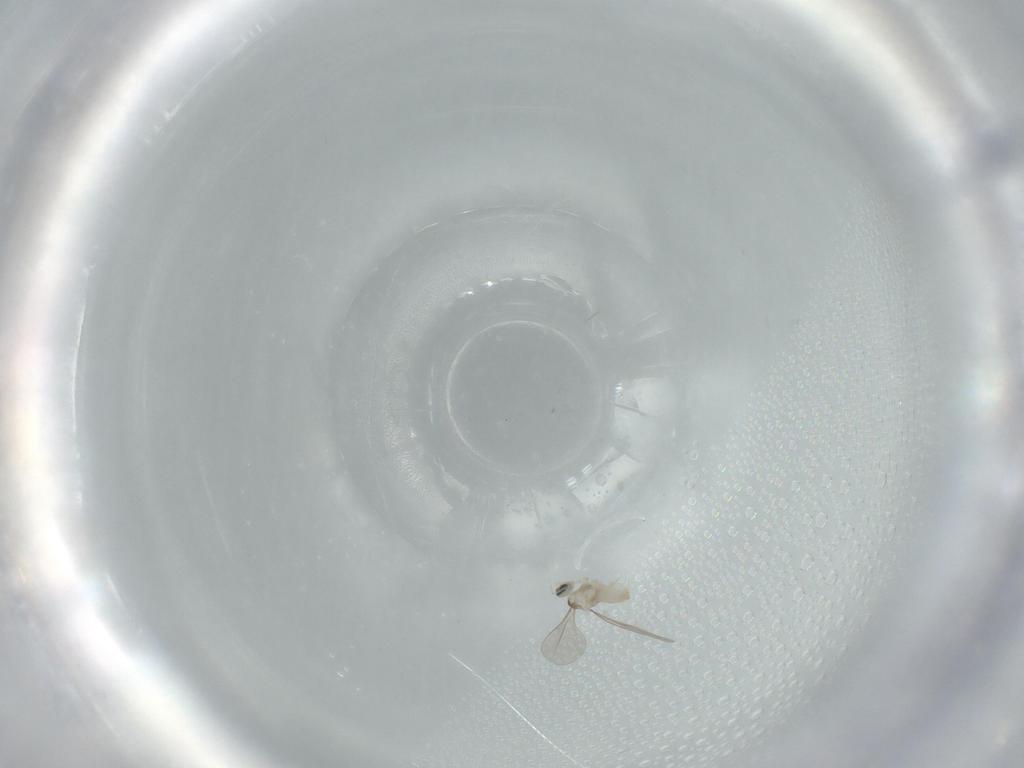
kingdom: Animalia
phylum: Arthropoda
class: Insecta
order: Diptera
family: Cecidomyiidae
